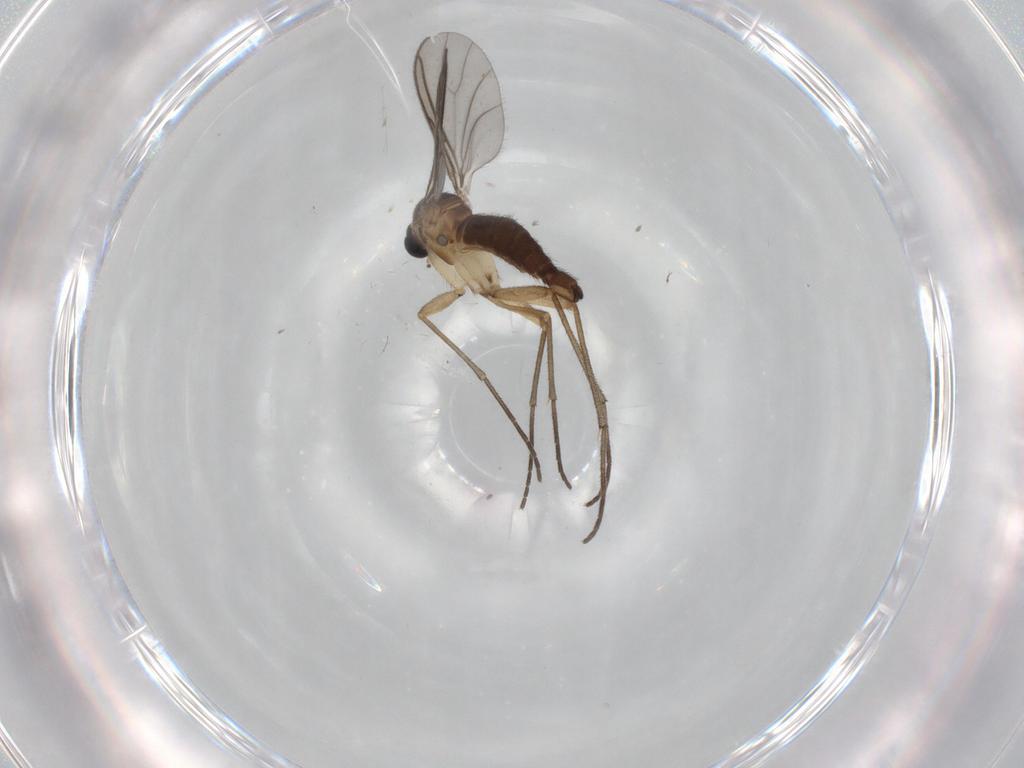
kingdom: Animalia
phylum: Arthropoda
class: Insecta
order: Diptera
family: Sciaridae
